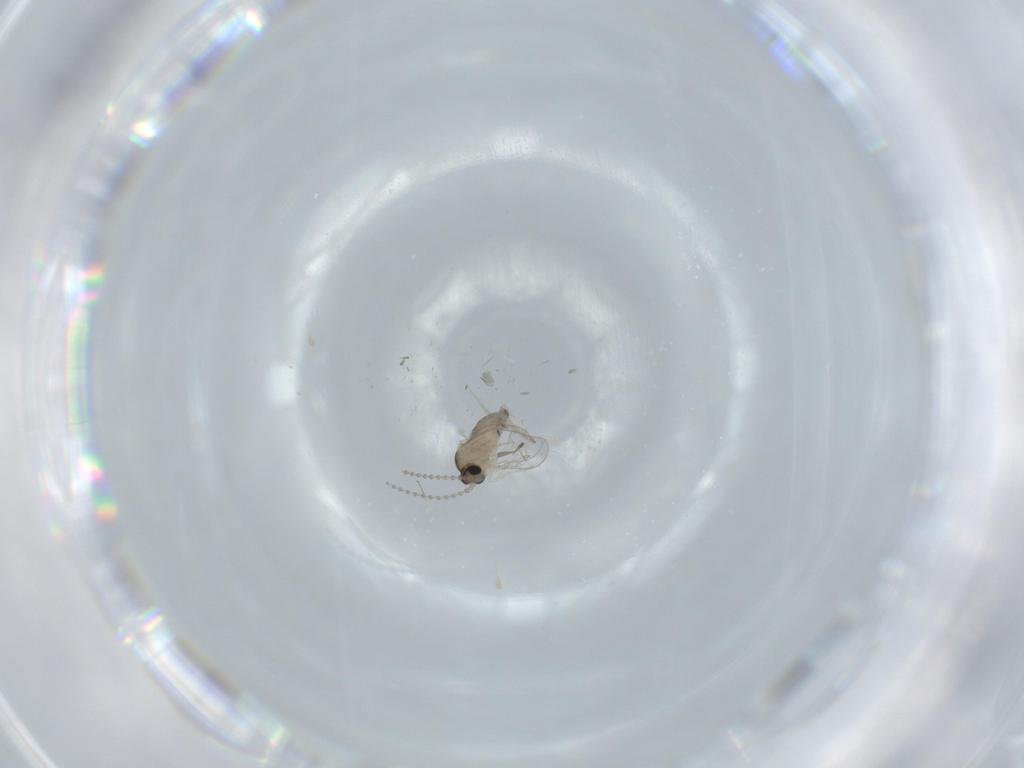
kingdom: Animalia
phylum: Arthropoda
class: Insecta
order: Diptera
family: Cecidomyiidae
